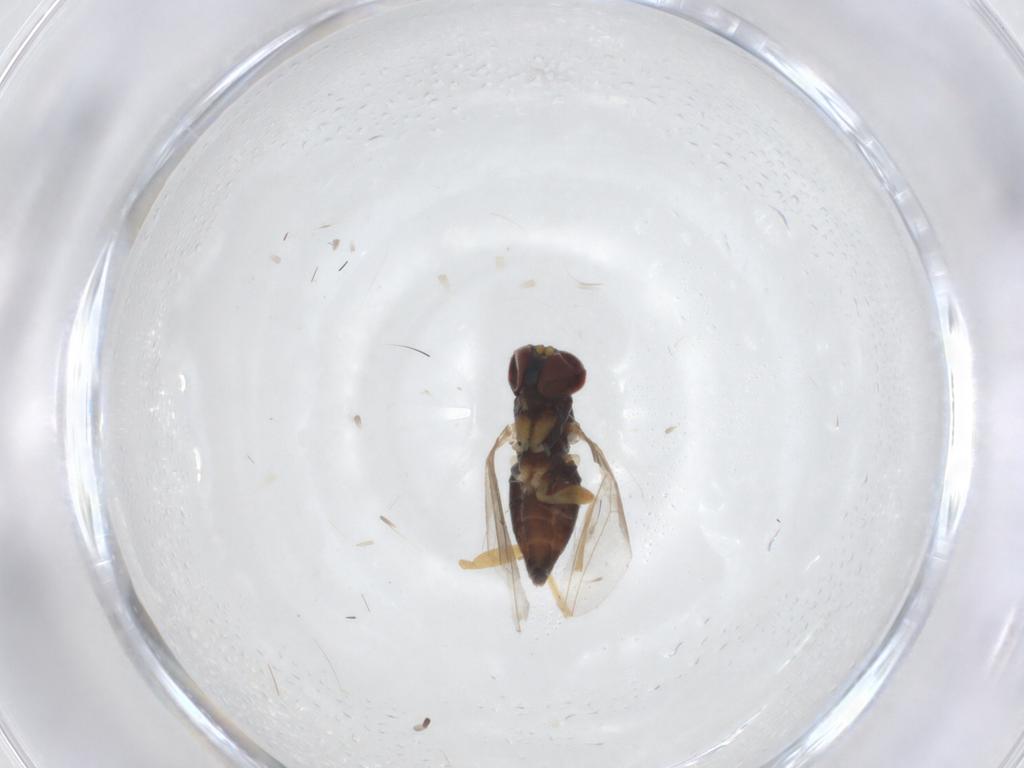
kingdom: Animalia
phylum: Arthropoda
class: Insecta
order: Diptera
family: Dolichopodidae
